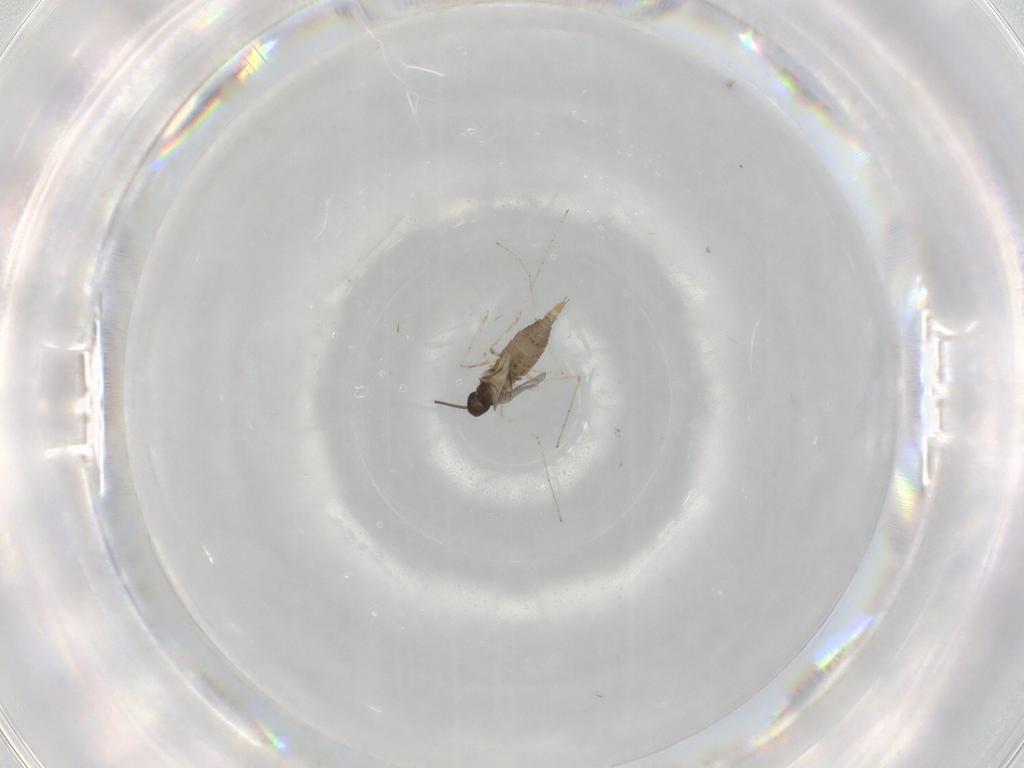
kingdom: Animalia
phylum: Arthropoda
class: Insecta
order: Diptera
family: Cecidomyiidae
